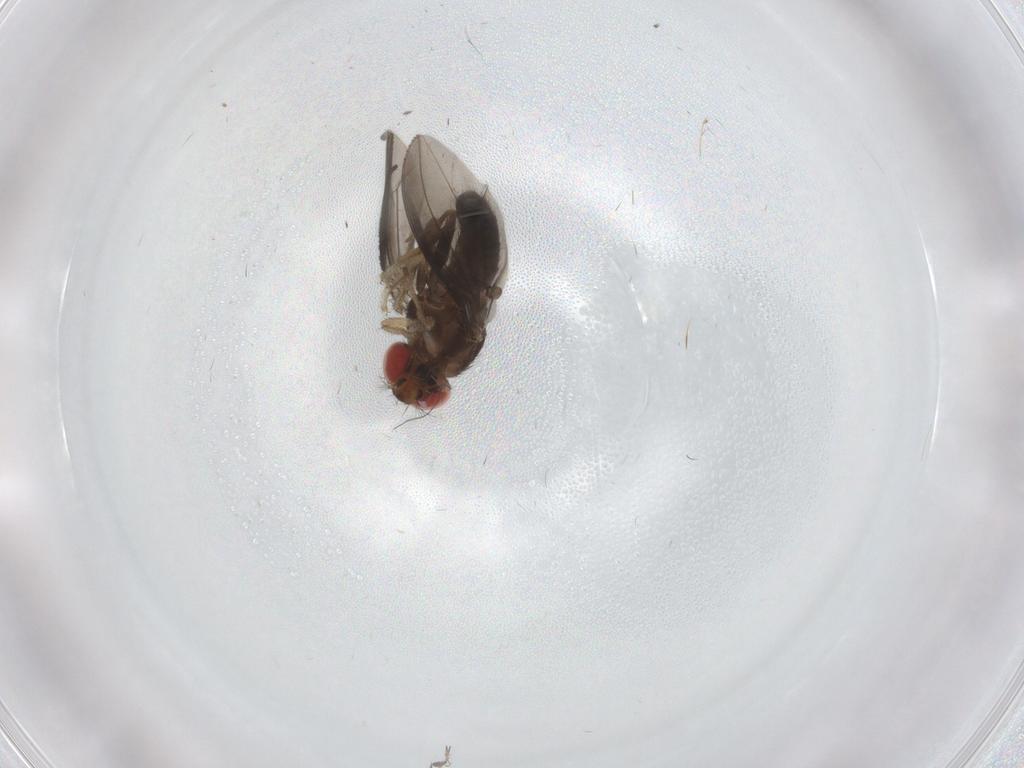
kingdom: Animalia
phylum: Arthropoda
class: Insecta
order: Diptera
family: Drosophilidae
